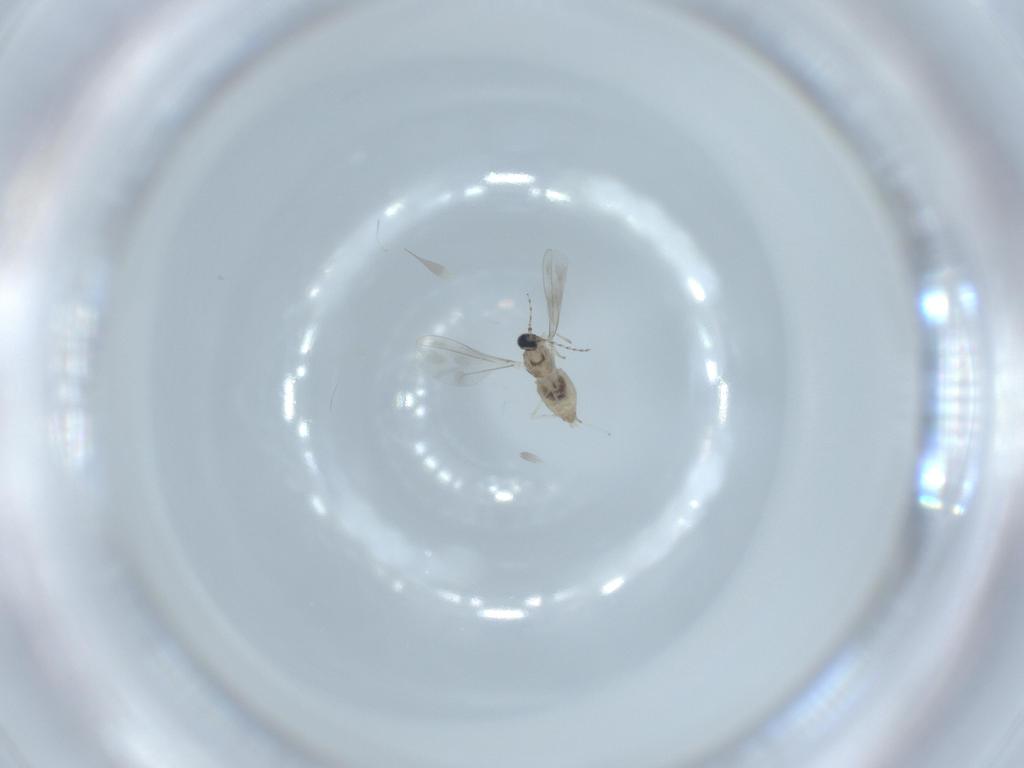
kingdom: Animalia
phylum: Arthropoda
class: Insecta
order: Diptera
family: Cecidomyiidae
